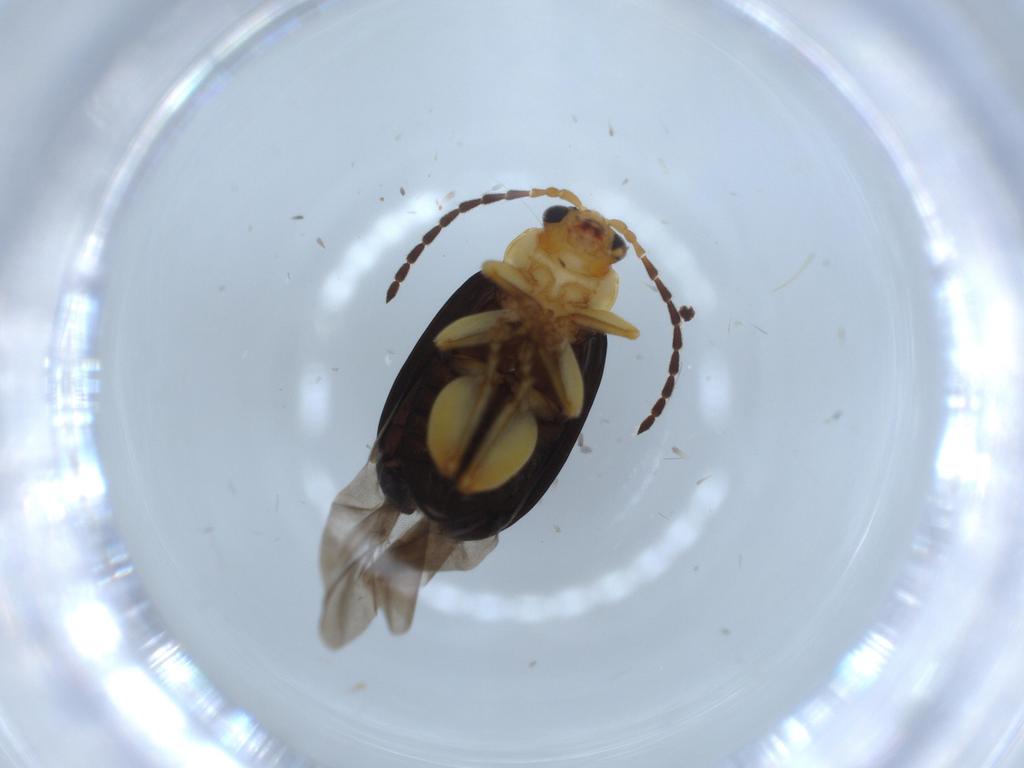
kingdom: Animalia
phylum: Arthropoda
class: Insecta
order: Coleoptera
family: Chrysomelidae
